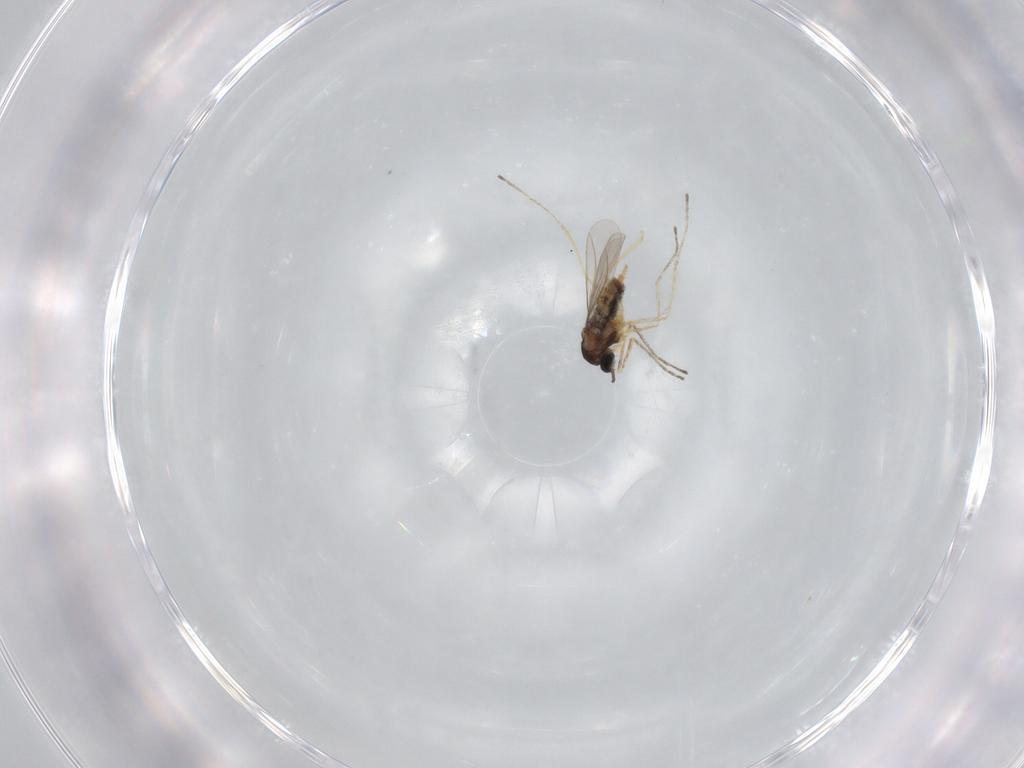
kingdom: Animalia
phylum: Arthropoda
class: Insecta
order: Diptera
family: Cecidomyiidae
